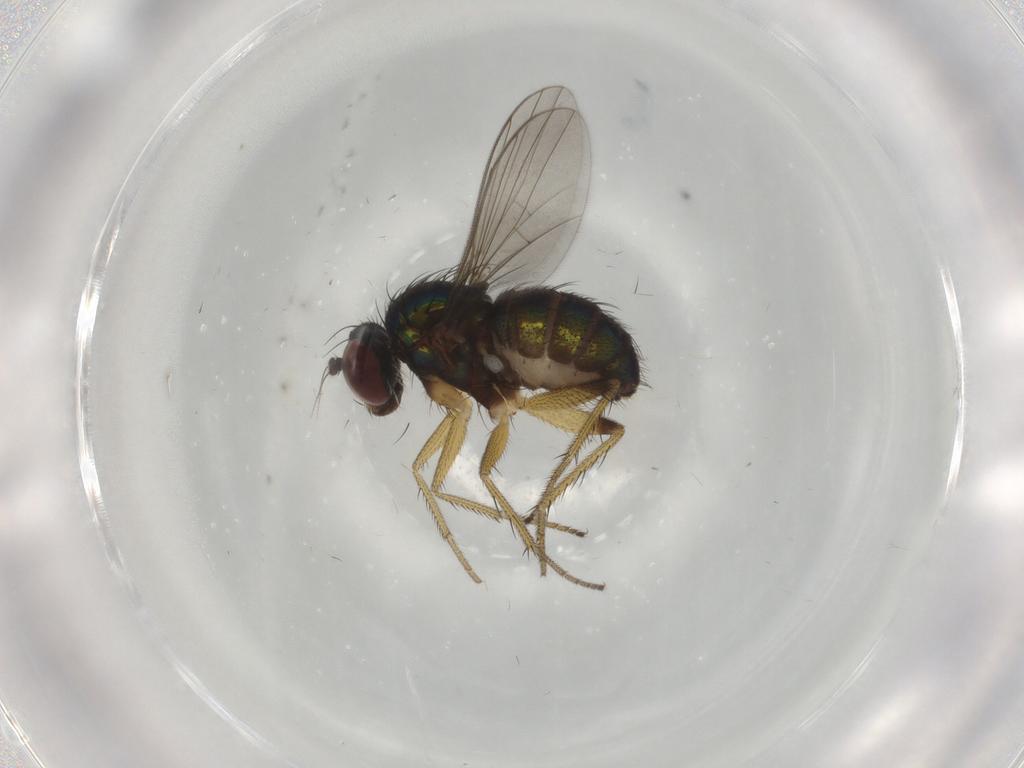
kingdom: Animalia
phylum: Arthropoda
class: Insecta
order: Diptera
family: Dolichopodidae
